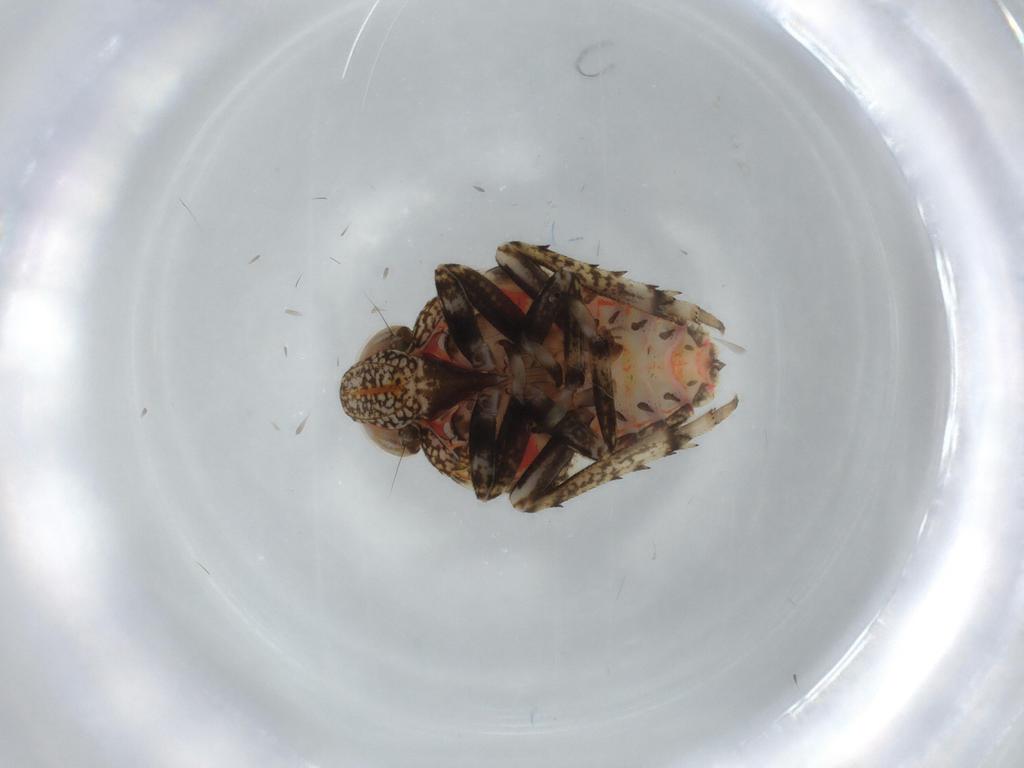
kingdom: Animalia
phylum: Arthropoda
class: Insecta
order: Hemiptera
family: Issidae
